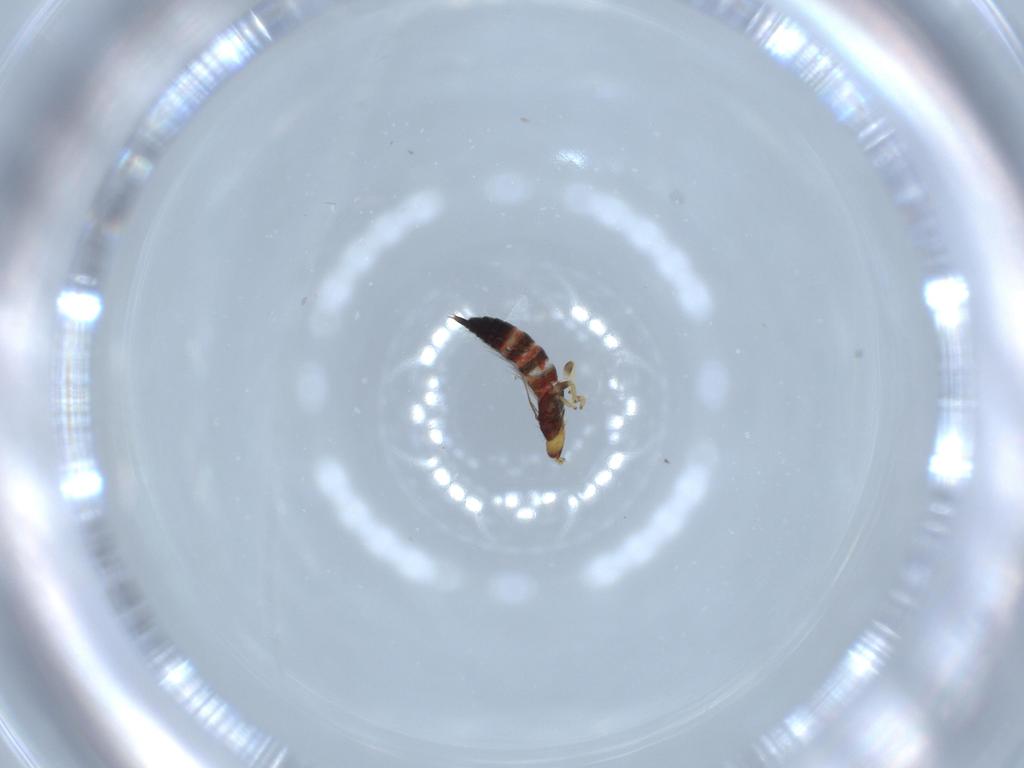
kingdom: Animalia
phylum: Arthropoda
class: Insecta
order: Thysanoptera
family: Phlaeothripidae
